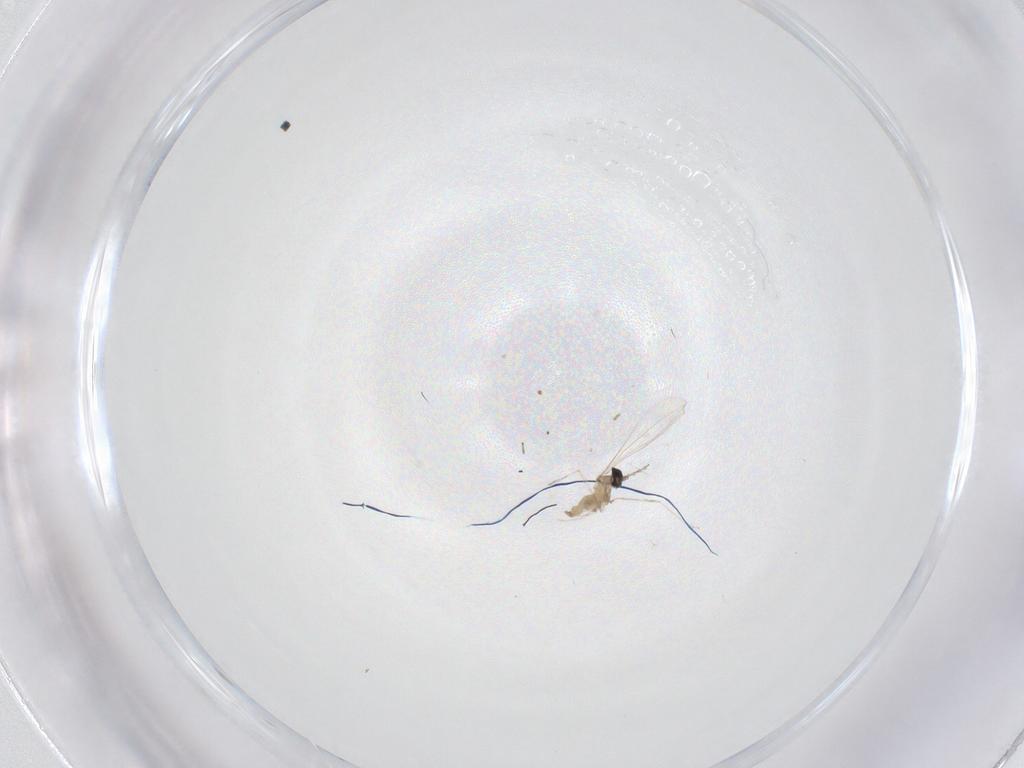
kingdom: Animalia
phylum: Arthropoda
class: Insecta
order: Diptera
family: Cecidomyiidae
